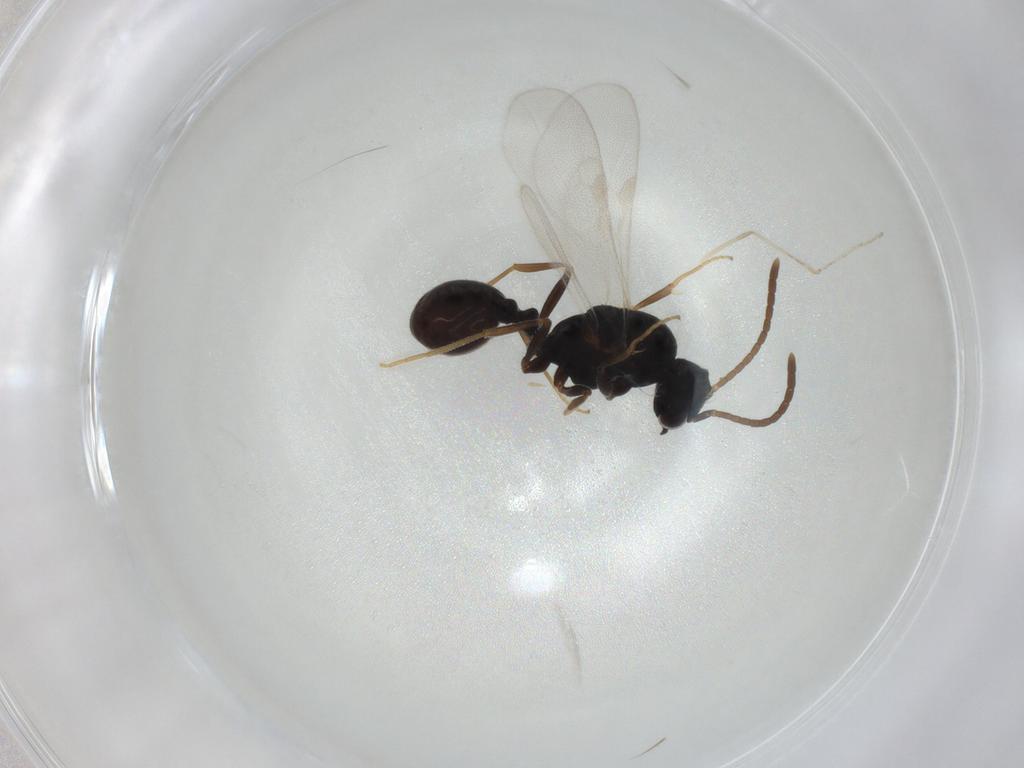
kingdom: Animalia
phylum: Arthropoda
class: Insecta
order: Hymenoptera
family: Formicidae
